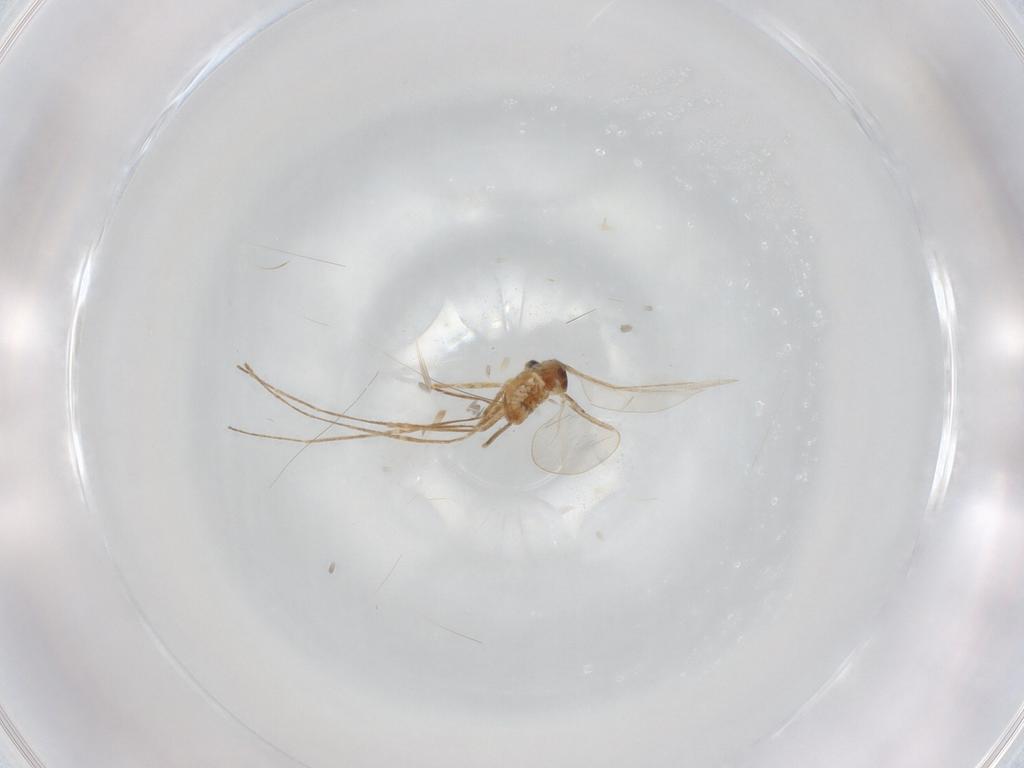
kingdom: Animalia
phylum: Arthropoda
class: Insecta
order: Diptera
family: Cecidomyiidae
